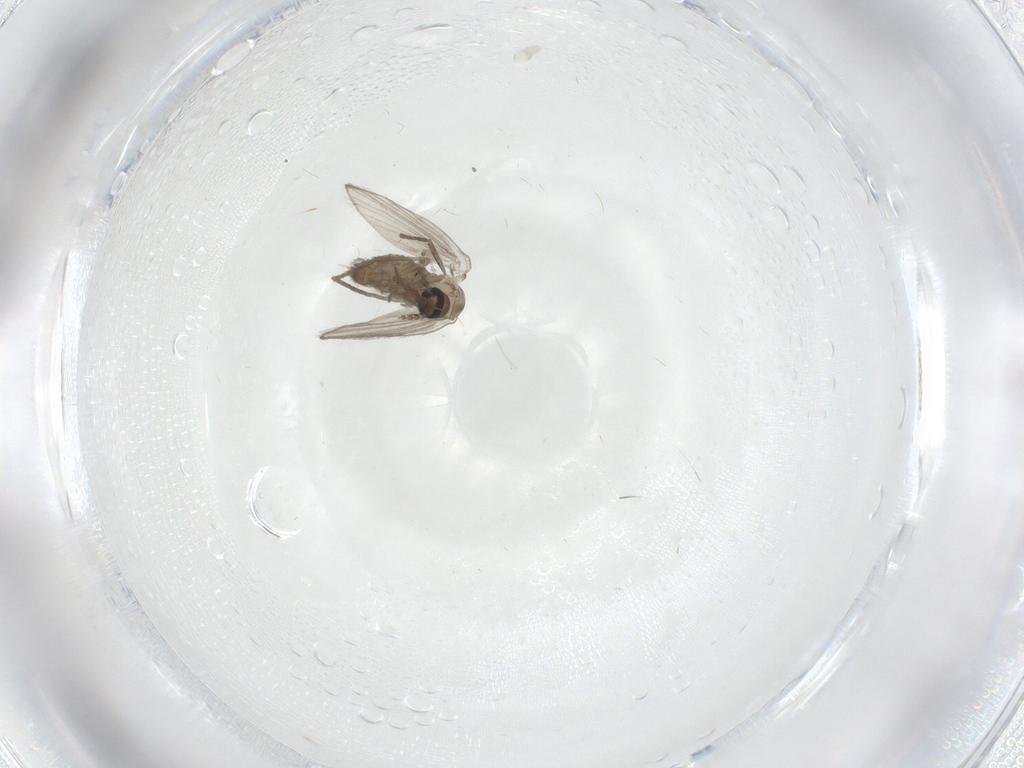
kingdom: Animalia
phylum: Arthropoda
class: Insecta
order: Diptera
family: Psychodidae
